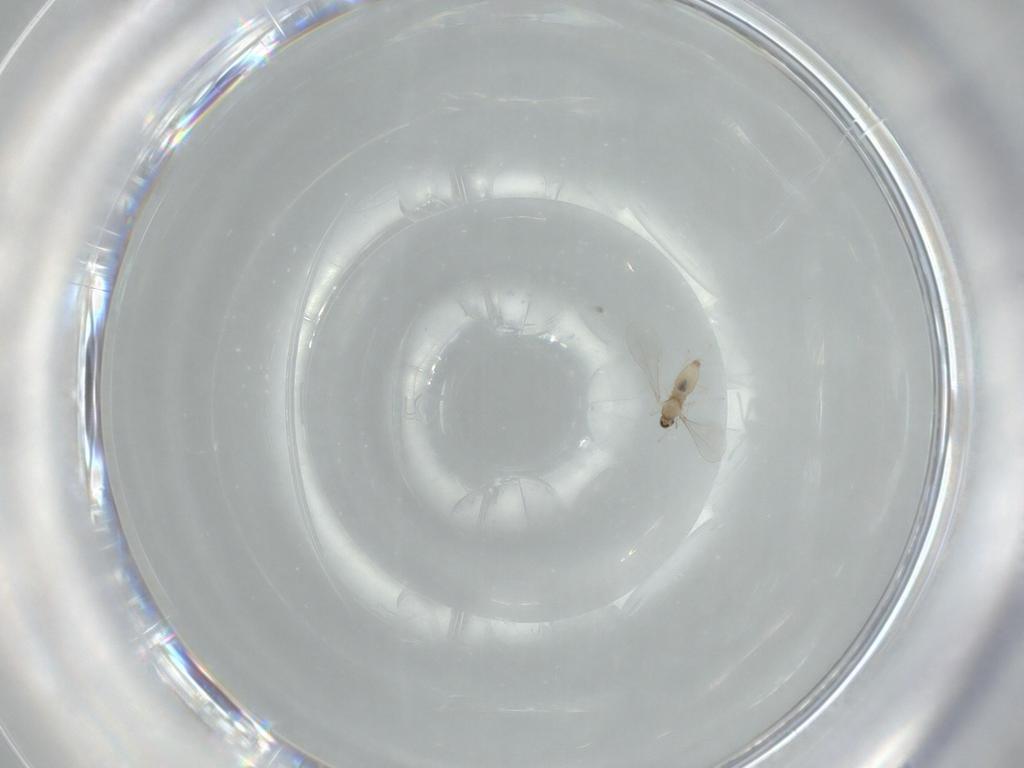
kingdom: Animalia
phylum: Arthropoda
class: Insecta
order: Diptera
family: Cecidomyiidae
